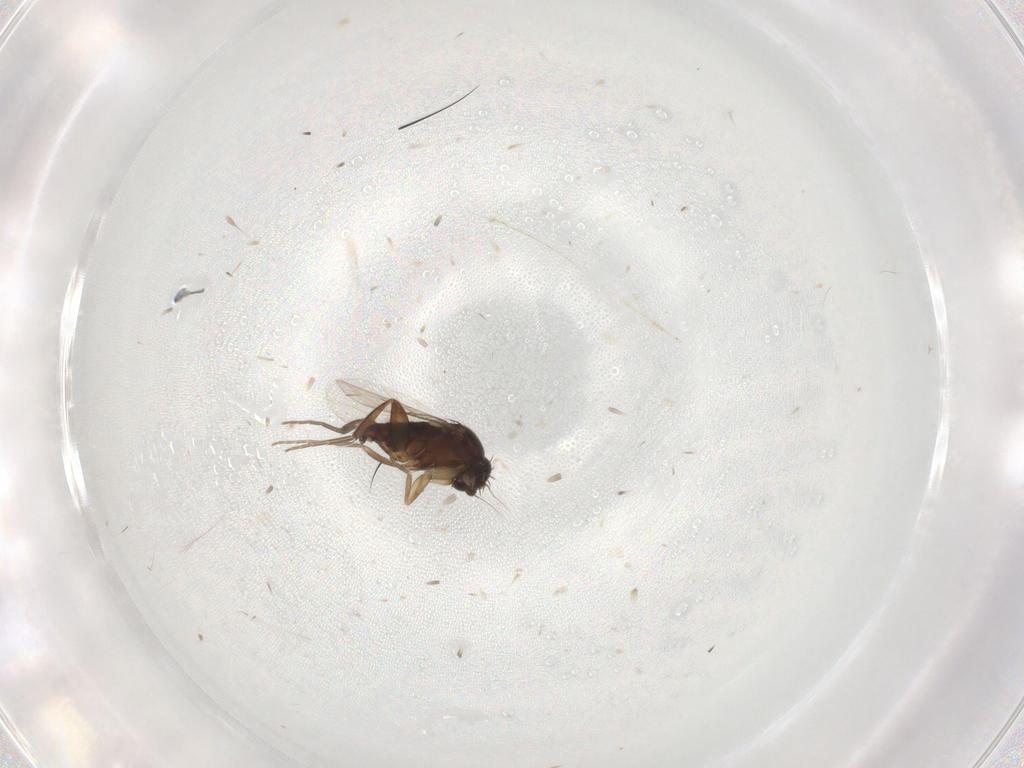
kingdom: Animalia
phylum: Arthropoda
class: Insecta
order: Diptera
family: Phoridae
